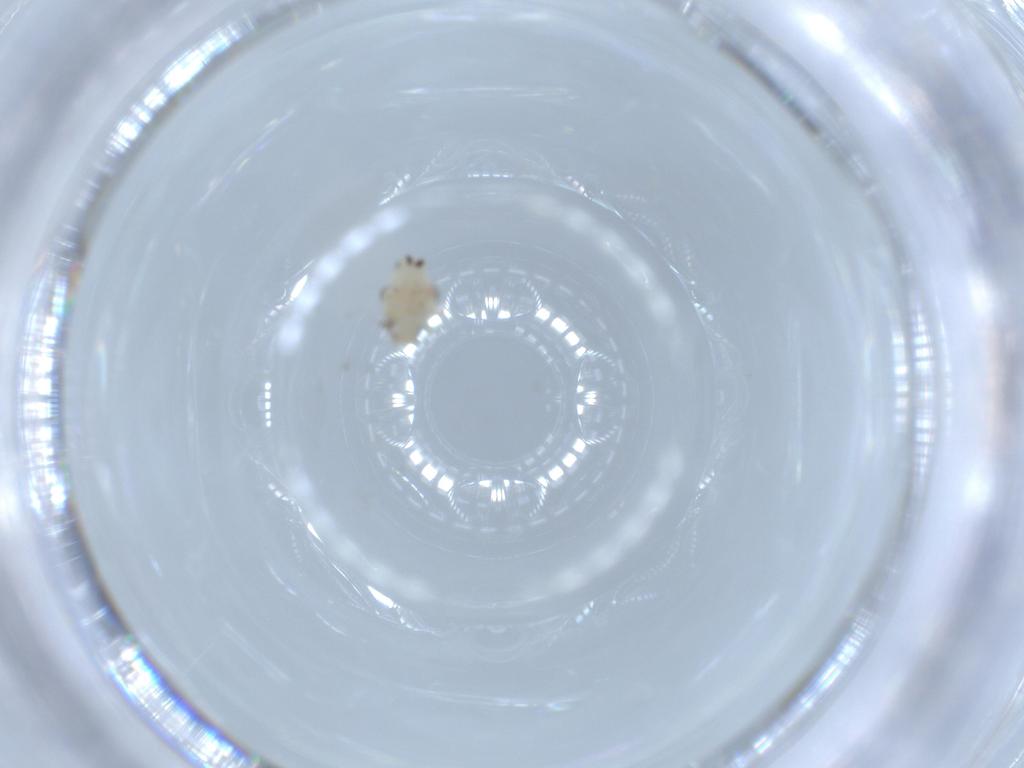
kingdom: Animalia
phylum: Arthropoda
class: Insecta
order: Hemiptera
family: Nogodinidae
